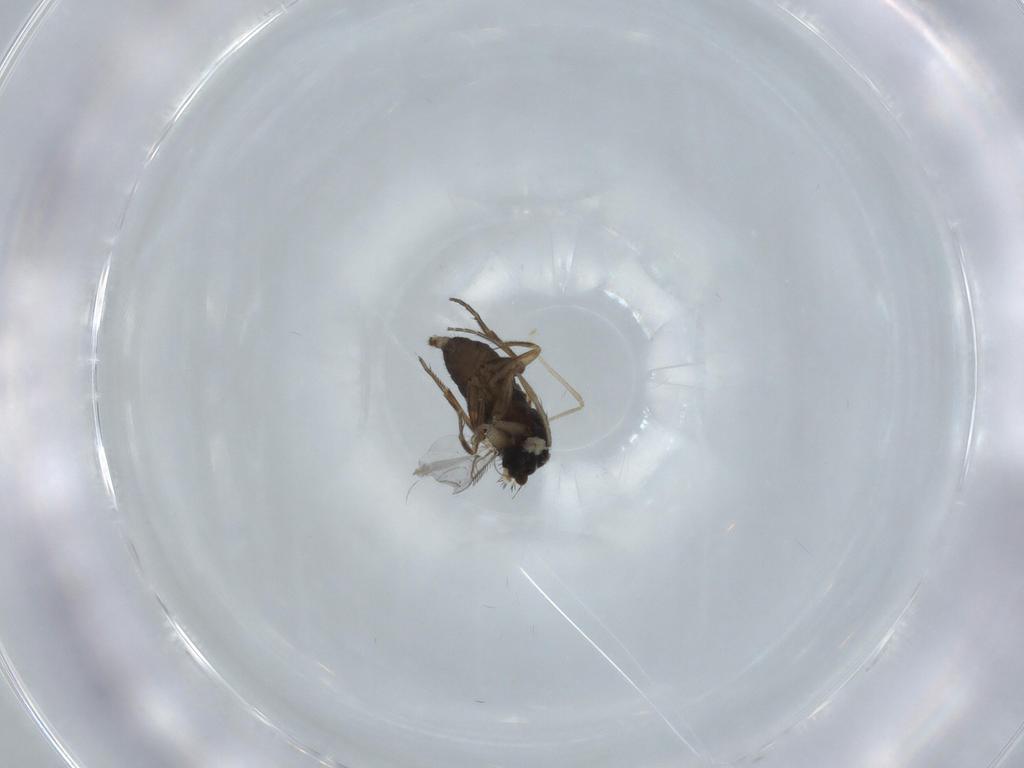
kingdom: Animalia
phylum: Arthropoda
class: Insecta
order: Diptera
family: Phoridae
